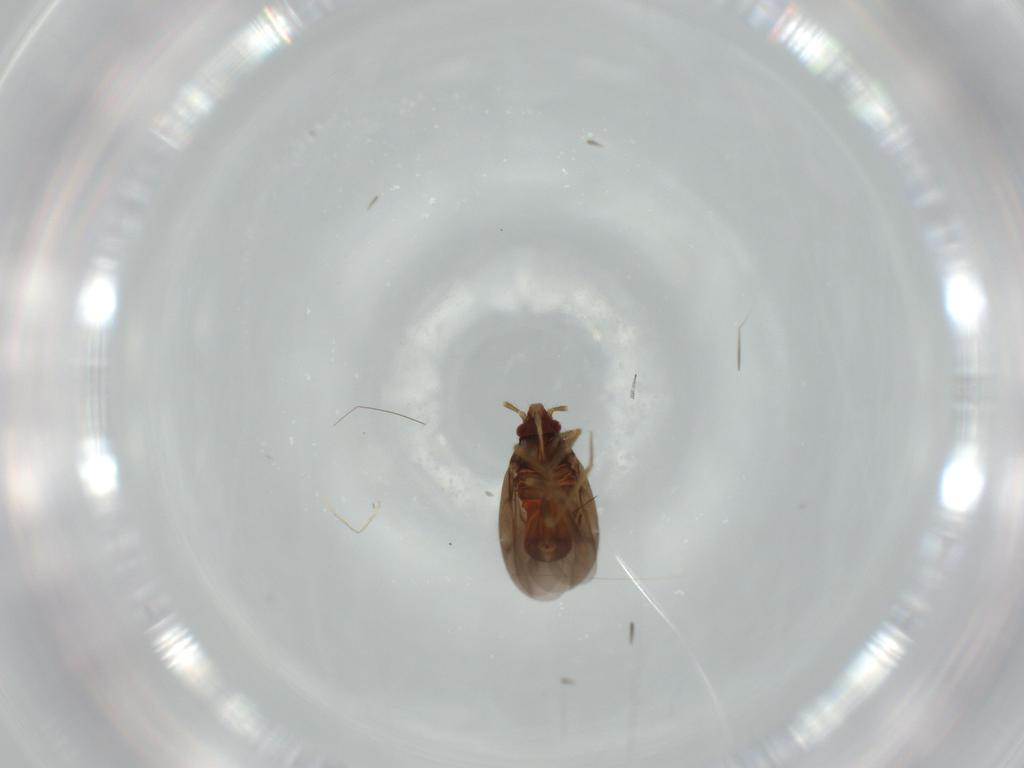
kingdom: Animalia
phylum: Arthropoda
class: Insecta
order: Hemiptera
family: Ceratocombidae
